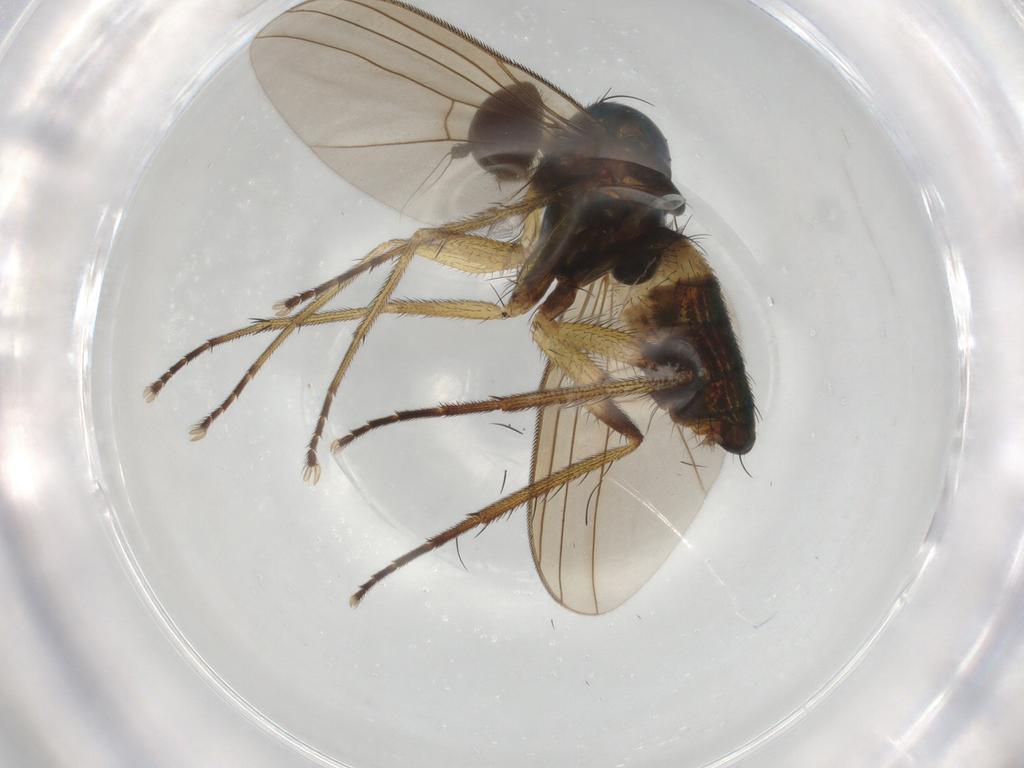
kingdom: Animalia
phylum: Arthropoda
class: Insecta
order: Diptera
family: Dolichopodidae
